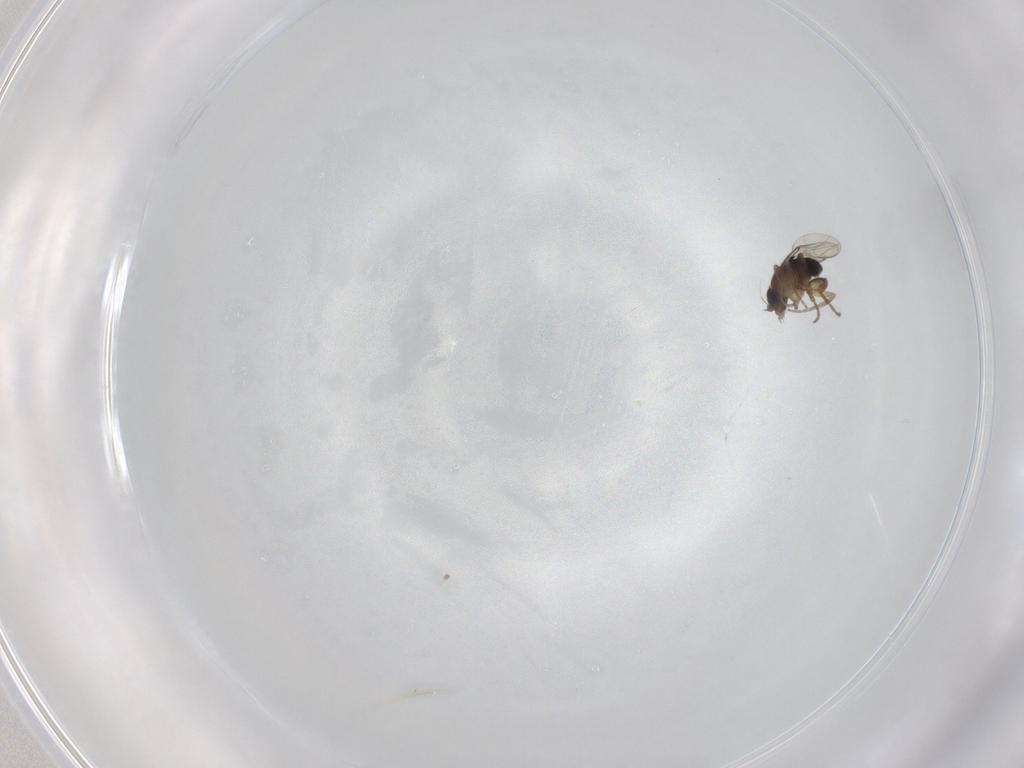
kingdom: Animalia
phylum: Arthropoda
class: Insecta
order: Diptera
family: Phoridae
